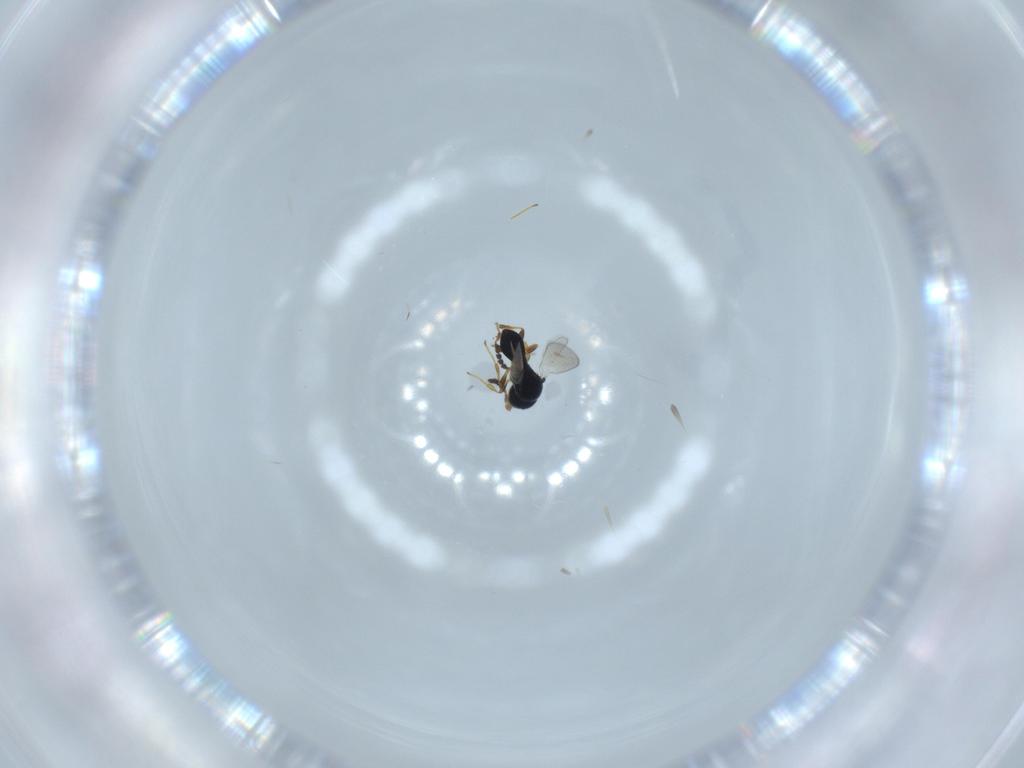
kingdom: Animalia
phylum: Arthropoda
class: Insecta
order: Hymenoptera
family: Platygastridae
